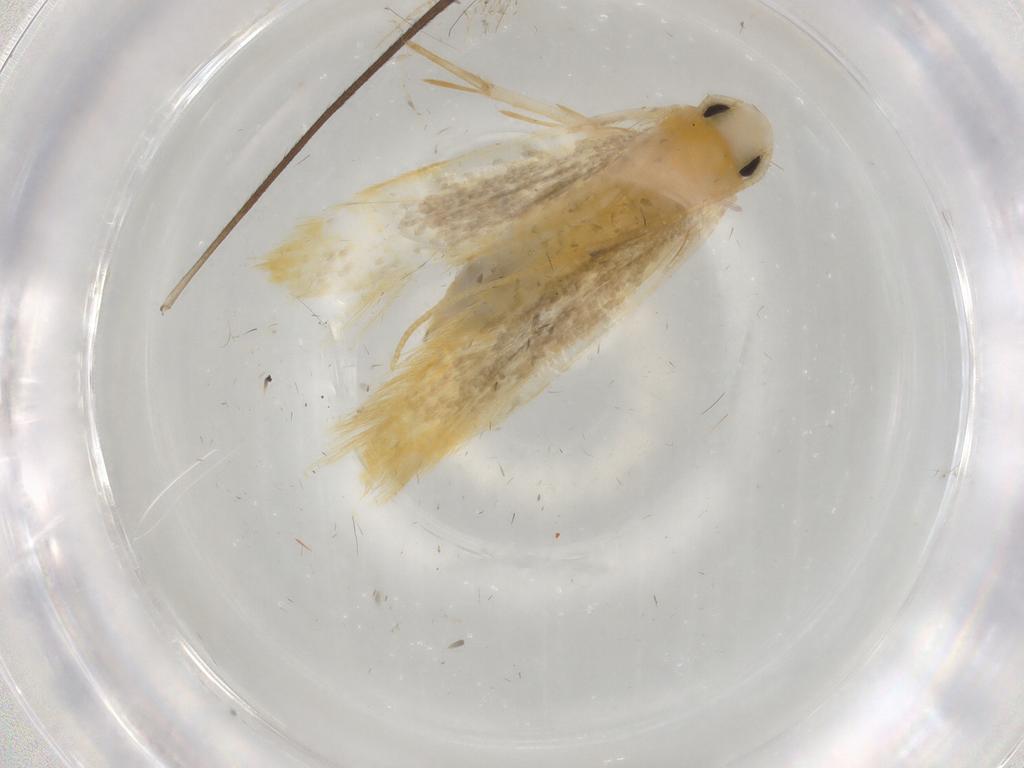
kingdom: Animalia
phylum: Arthropoda
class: Insecta
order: Lepidoptera
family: Tineidae
